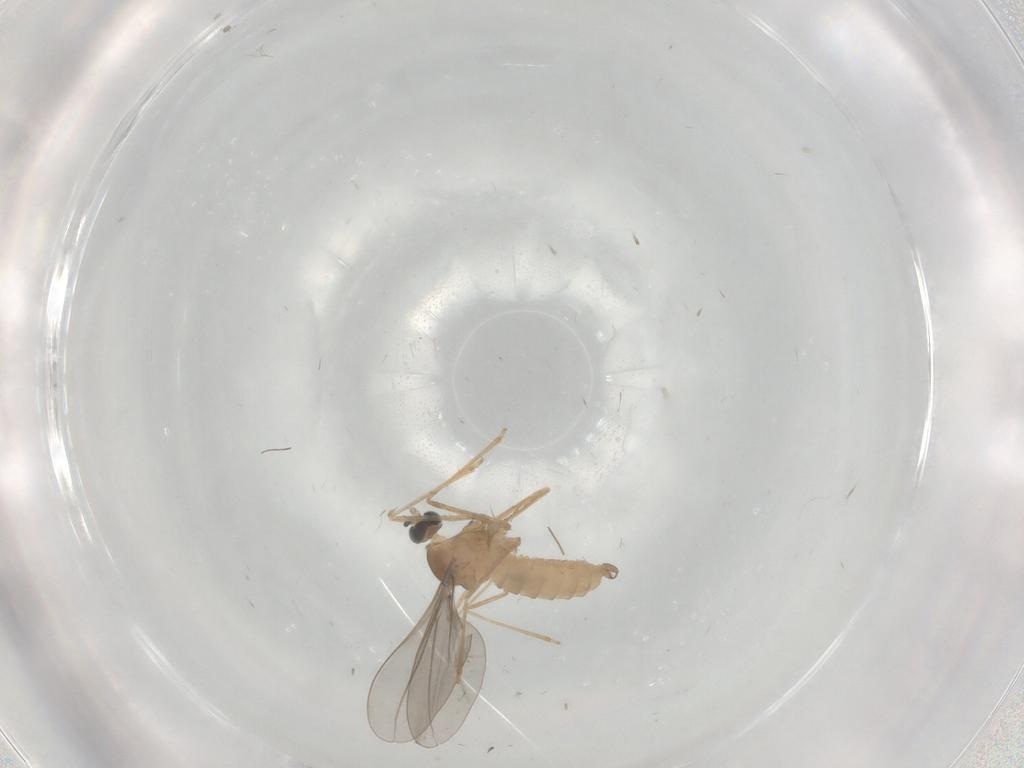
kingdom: Animalia
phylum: Arthropoda
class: Insecta
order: Diptera
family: Cecidomyiidae
